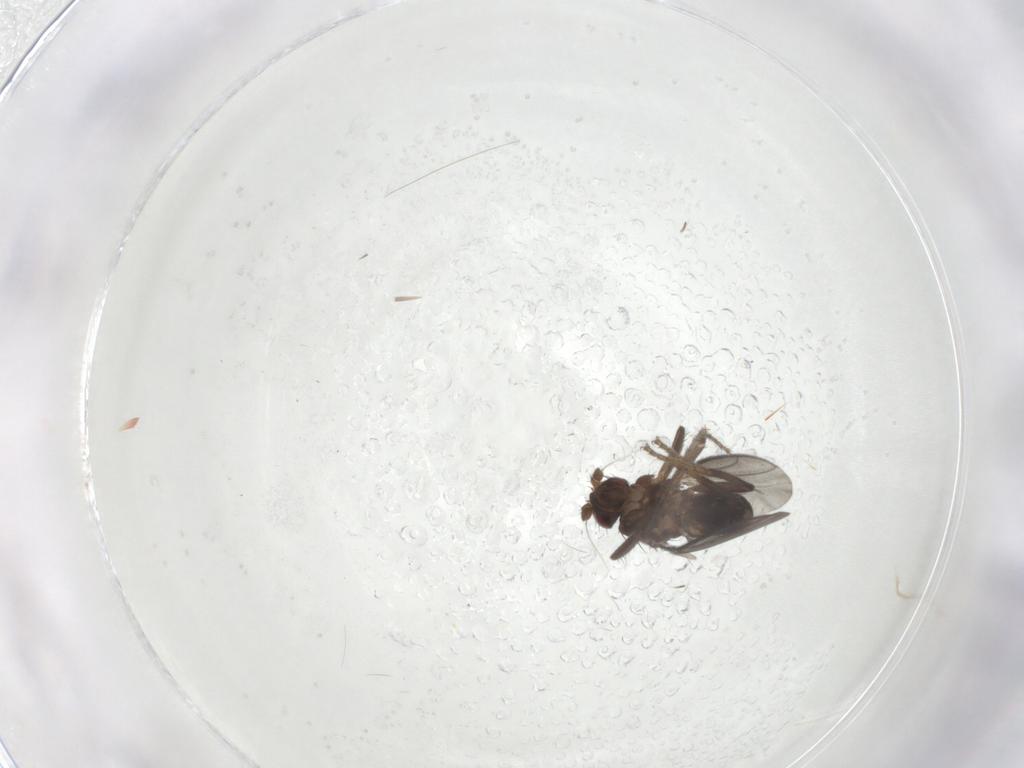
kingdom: Animalia
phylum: Arthropoda
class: Insecta
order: Diptera
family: Sphaeroceridae
